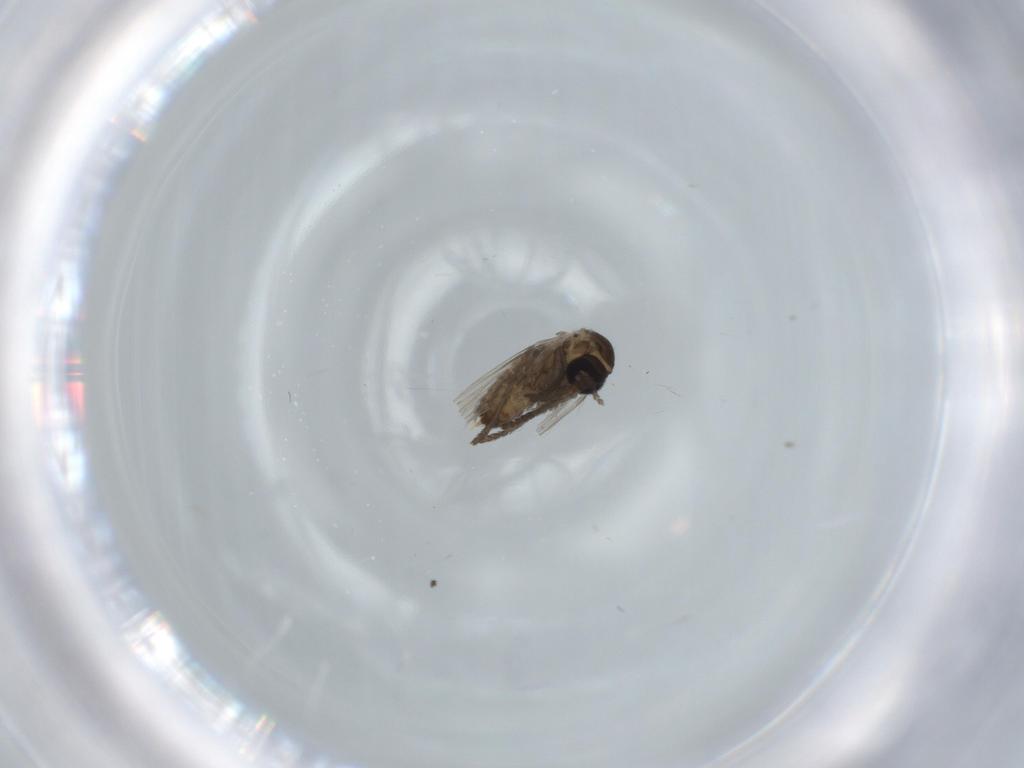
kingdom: Animalia
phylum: Arthropoda
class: Insecta
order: Diptera
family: Psychodidae
